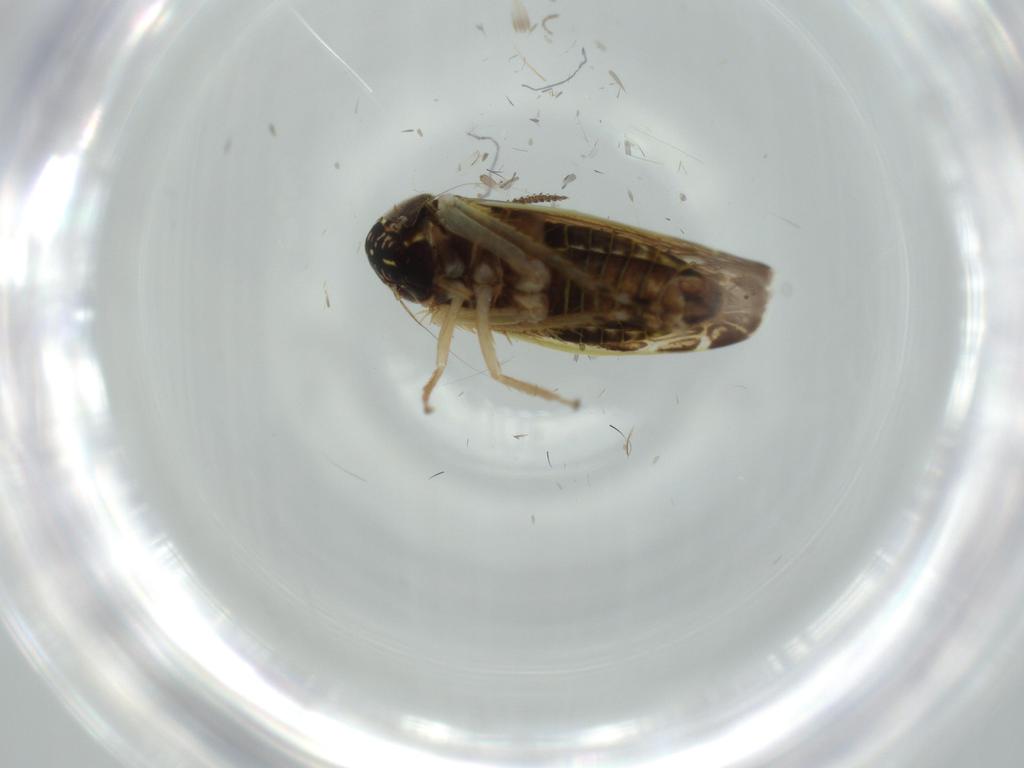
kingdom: Animalia
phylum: Arthropoda
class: Insecta
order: Hemiptera
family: Cicadellidae
